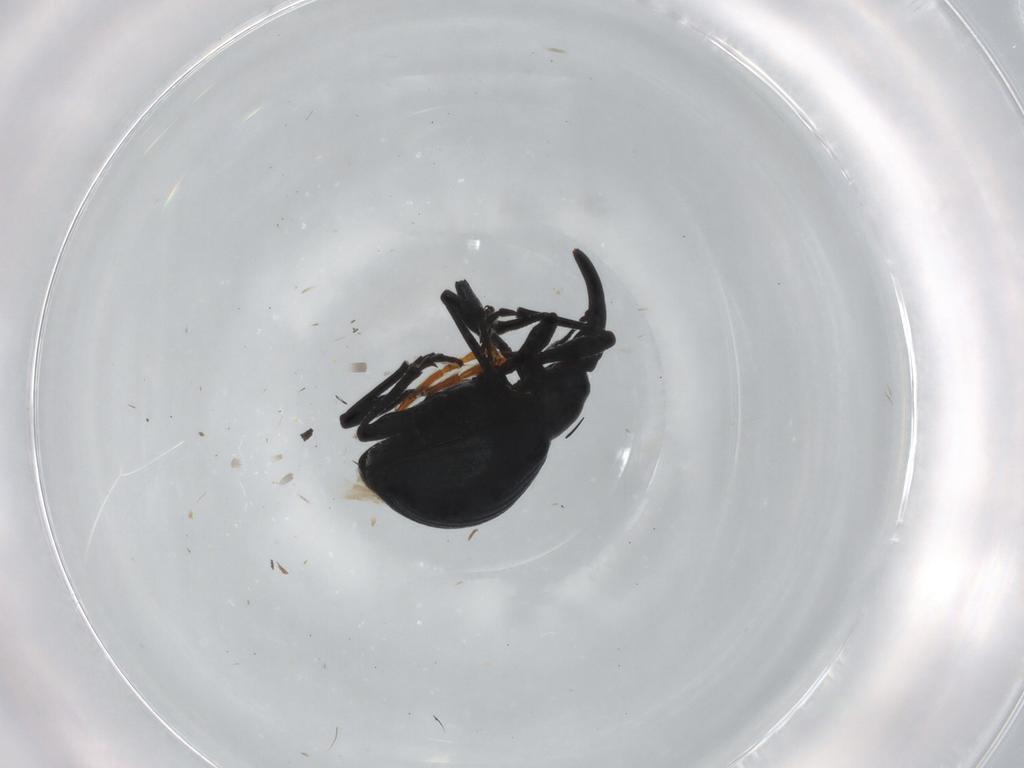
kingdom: Animalia
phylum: Arthropoda
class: Insecta
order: Coleoptera
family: Apionidae
